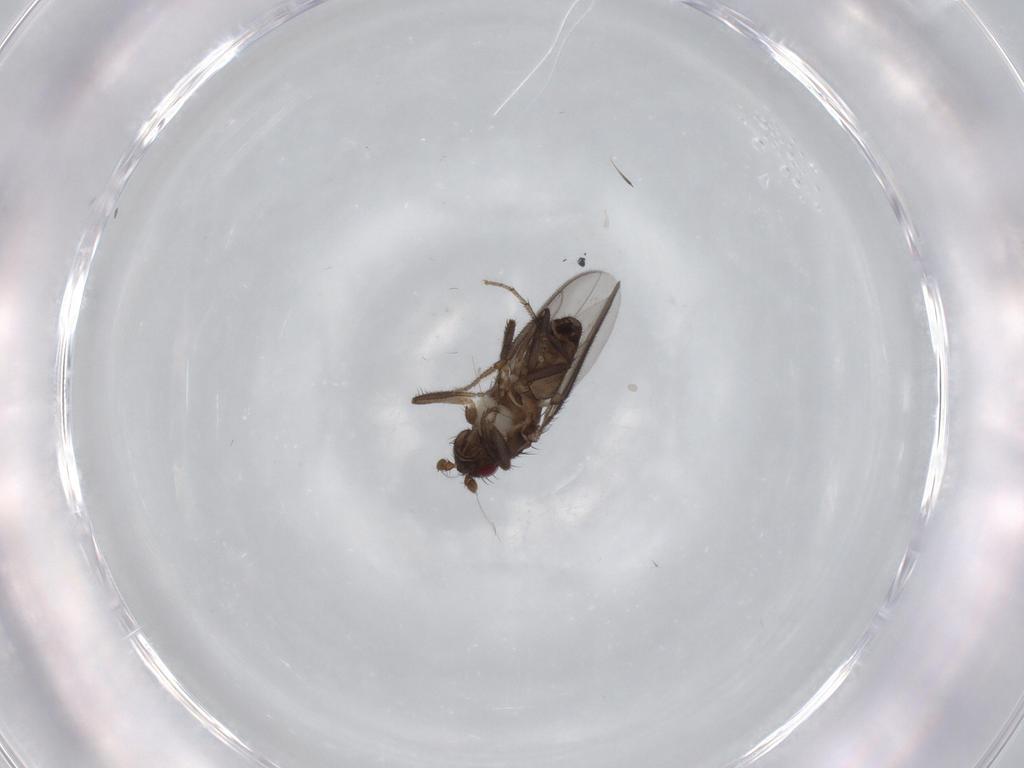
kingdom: Animalia
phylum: Arthropoda
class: Insecta
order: Diptera
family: Sphaeroceridae
